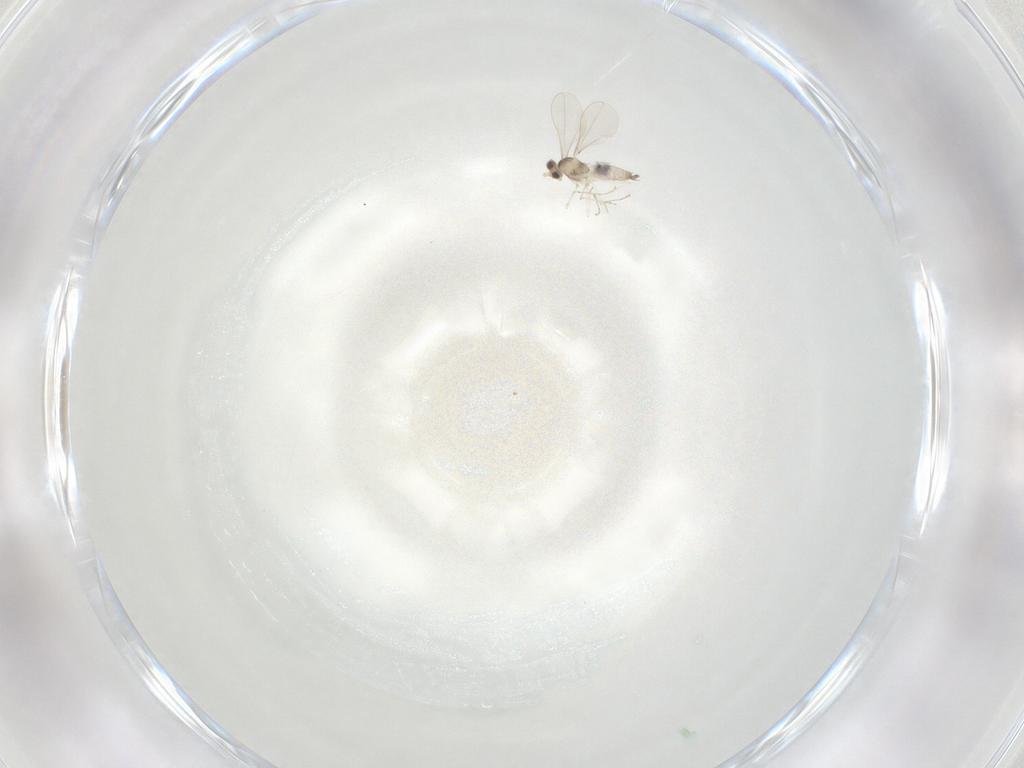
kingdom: Animalia
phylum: Arthropoda
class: Insecta
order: Diptera
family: Cecidomyiidae
